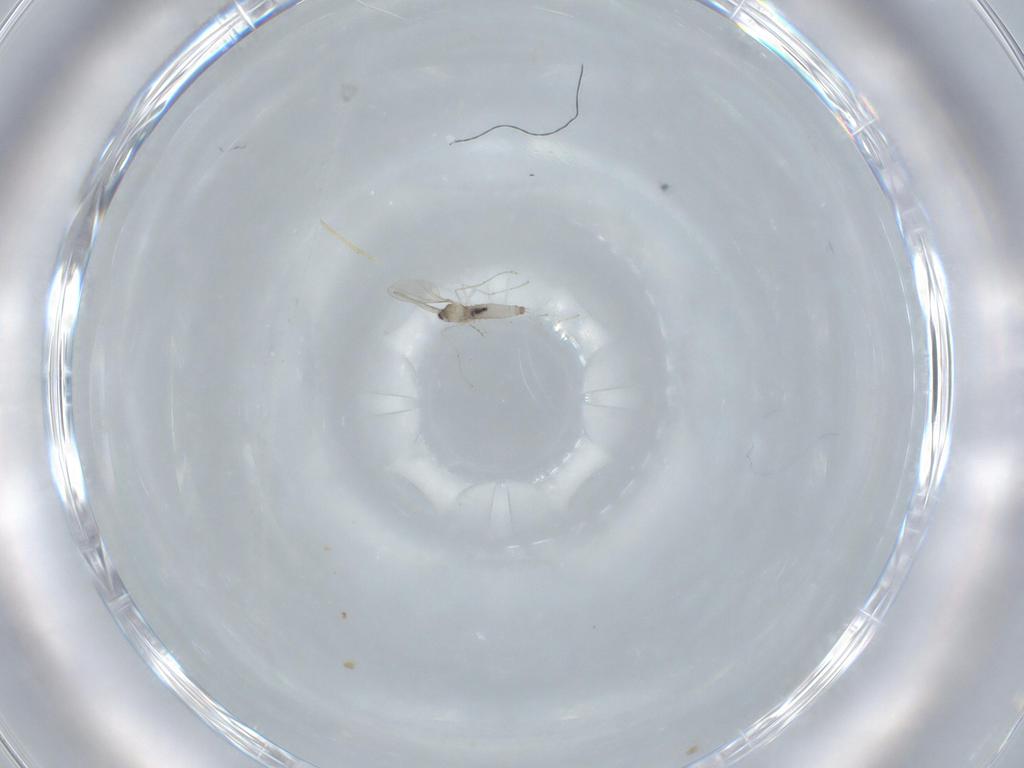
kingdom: Animalia
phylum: Arthropoda
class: Insecta
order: Diptera
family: Cecidomyiidae
